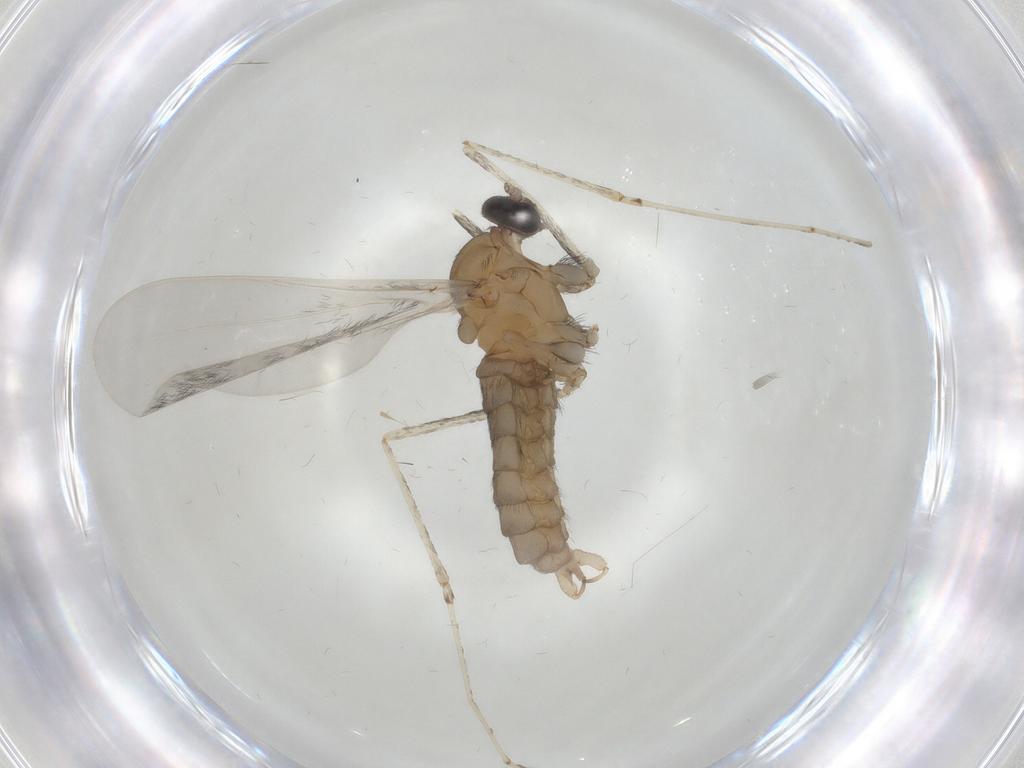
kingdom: Animalia
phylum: Arthropoda
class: Insecta
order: Diptera
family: Cecidomyiidae
